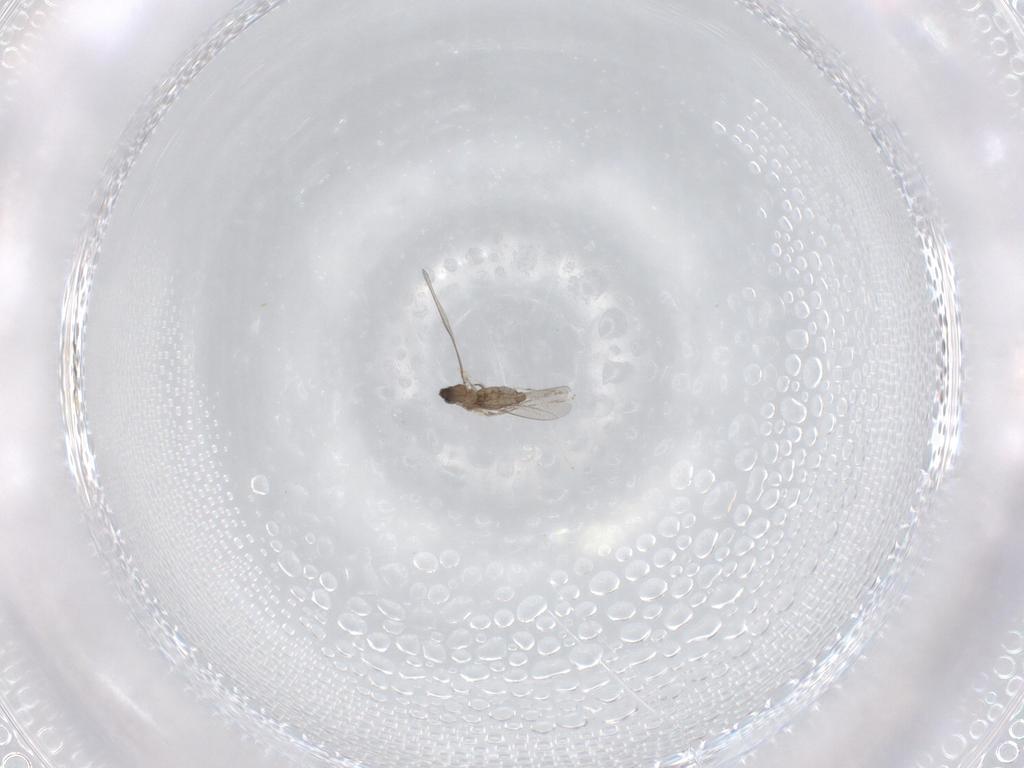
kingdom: Animalia
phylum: Arthropoda
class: Insecta
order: Diptera
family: Cecidomyiidae
